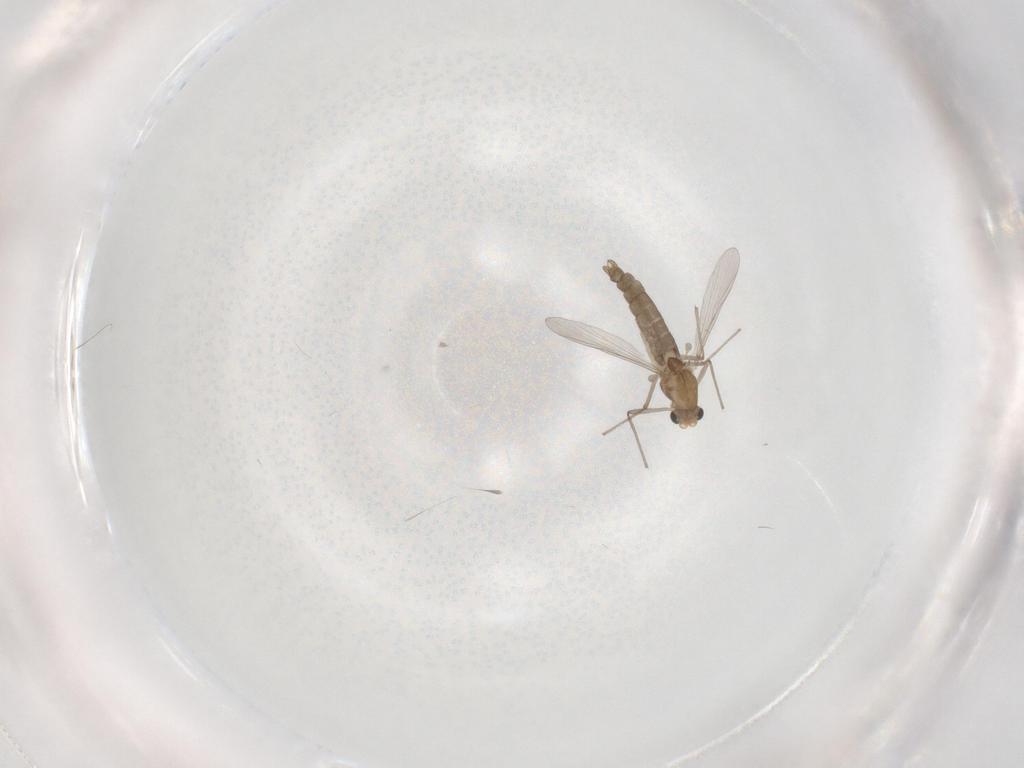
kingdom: Animalia
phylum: Arthropoda
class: Insecta
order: Diptera
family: Chironomidae
